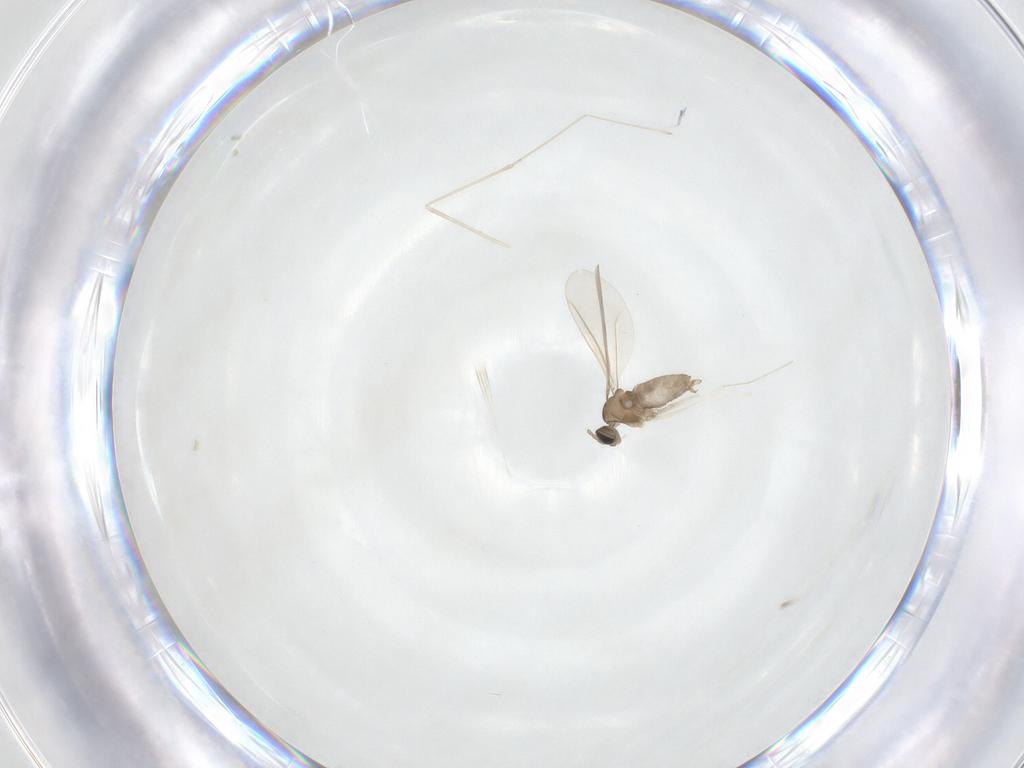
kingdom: Animalia
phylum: Arthropoda
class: Insecta
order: Diptera
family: Cecidomyiidae
